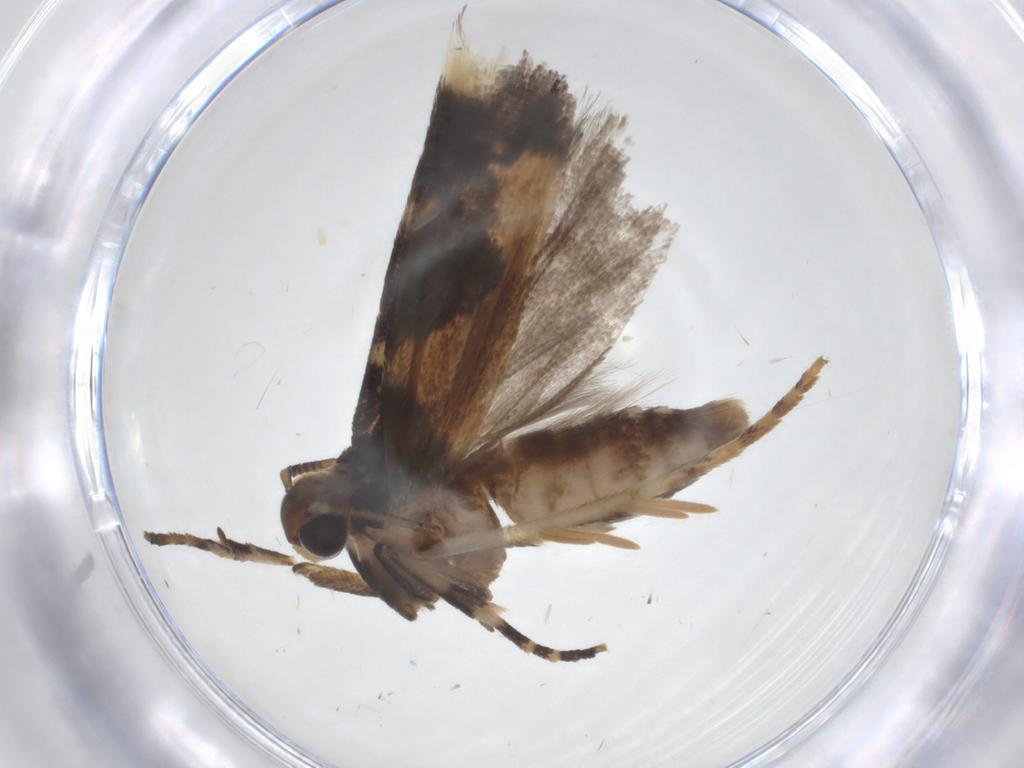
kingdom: Animalia
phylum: Arthropoda
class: Insecta
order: Lepidoptera
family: Gelechiidae
